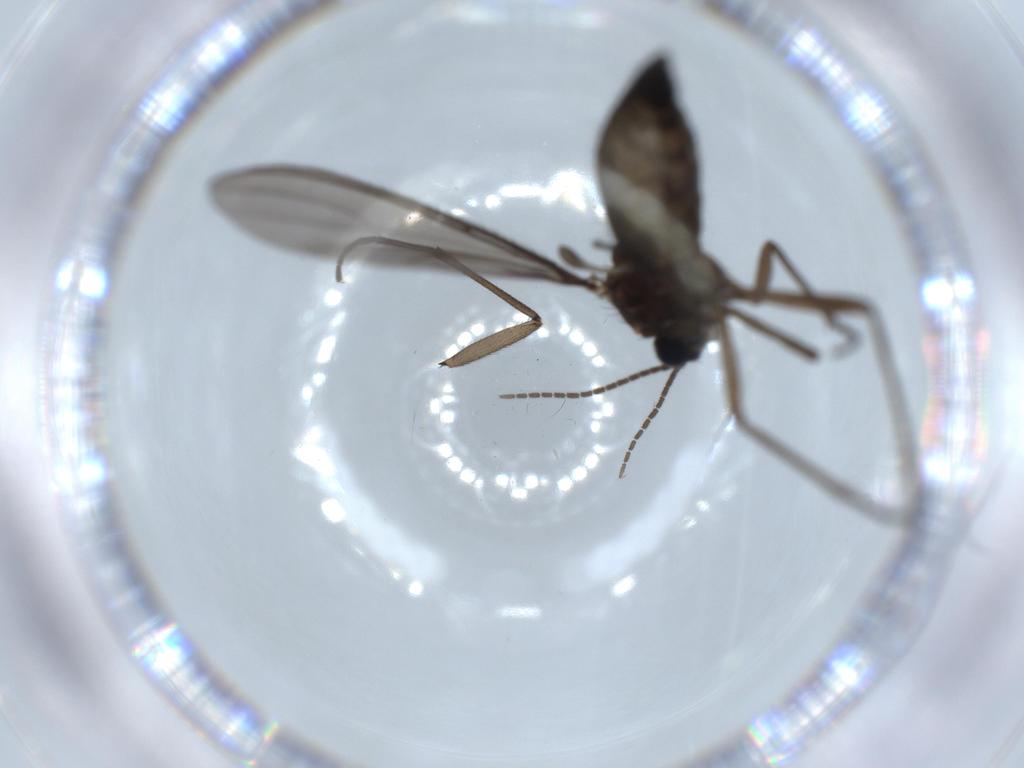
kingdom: Animalia
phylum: Arthropoda
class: Insecta
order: Diptera
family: Sciaridae
